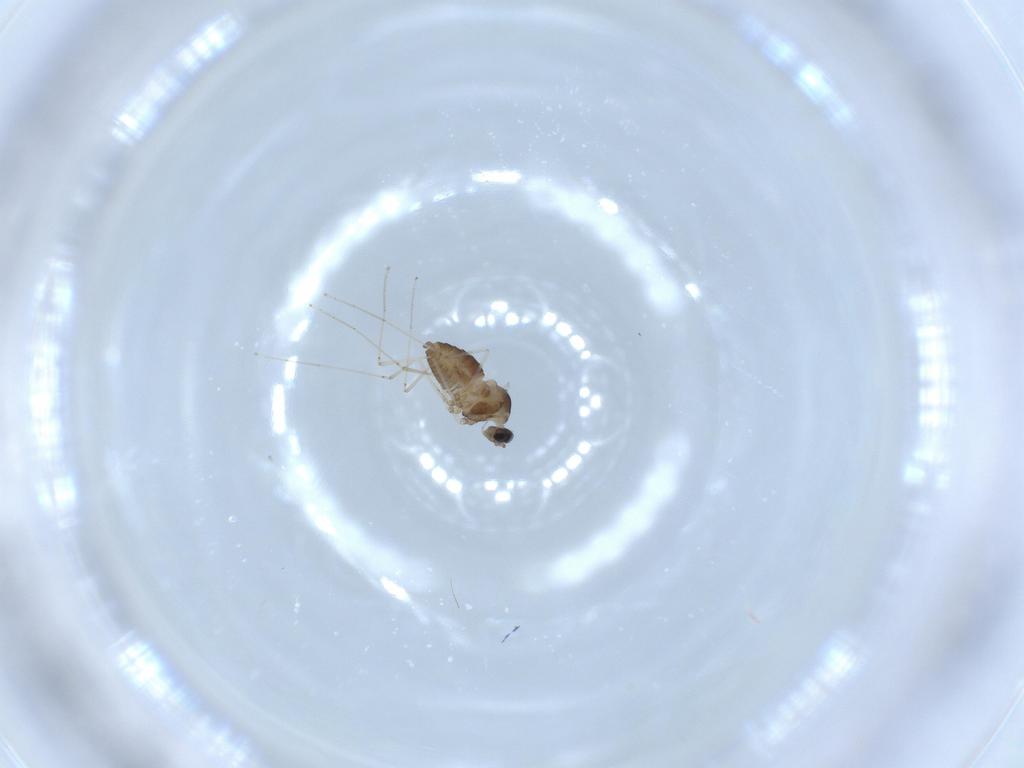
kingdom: Animalia
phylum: Arthropoda
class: Insecta
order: Diptera
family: Cecidomyiidae
